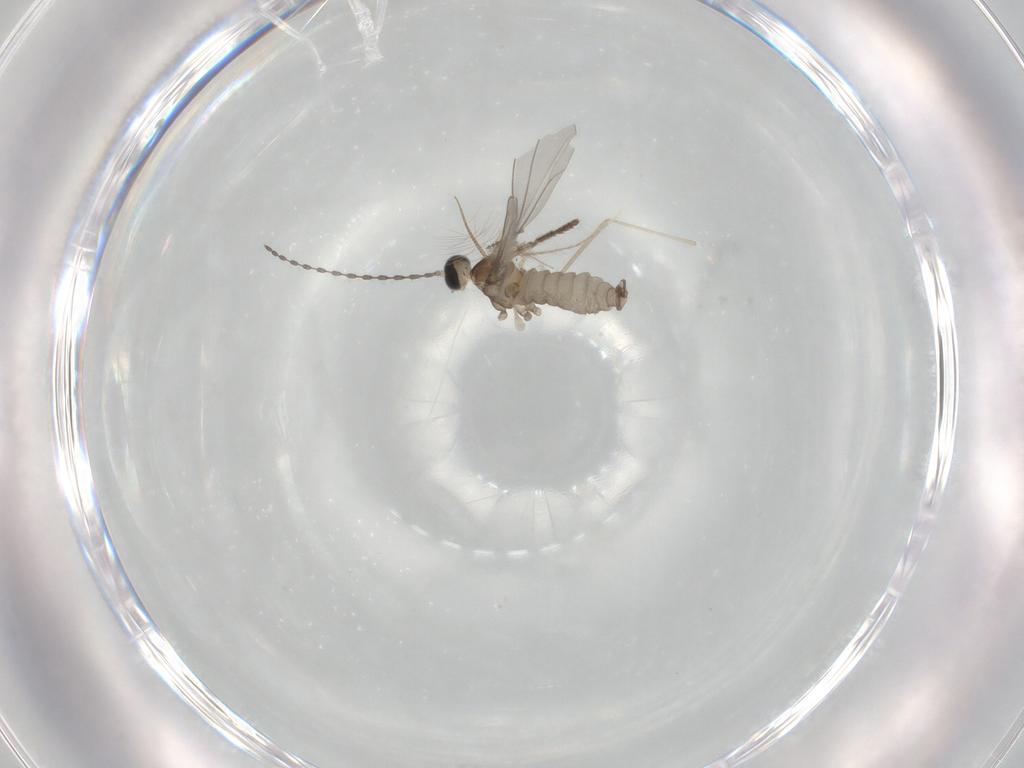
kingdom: Animalia
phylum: Arthropoda
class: Insecta
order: Diptera
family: Cecidomyiidae
